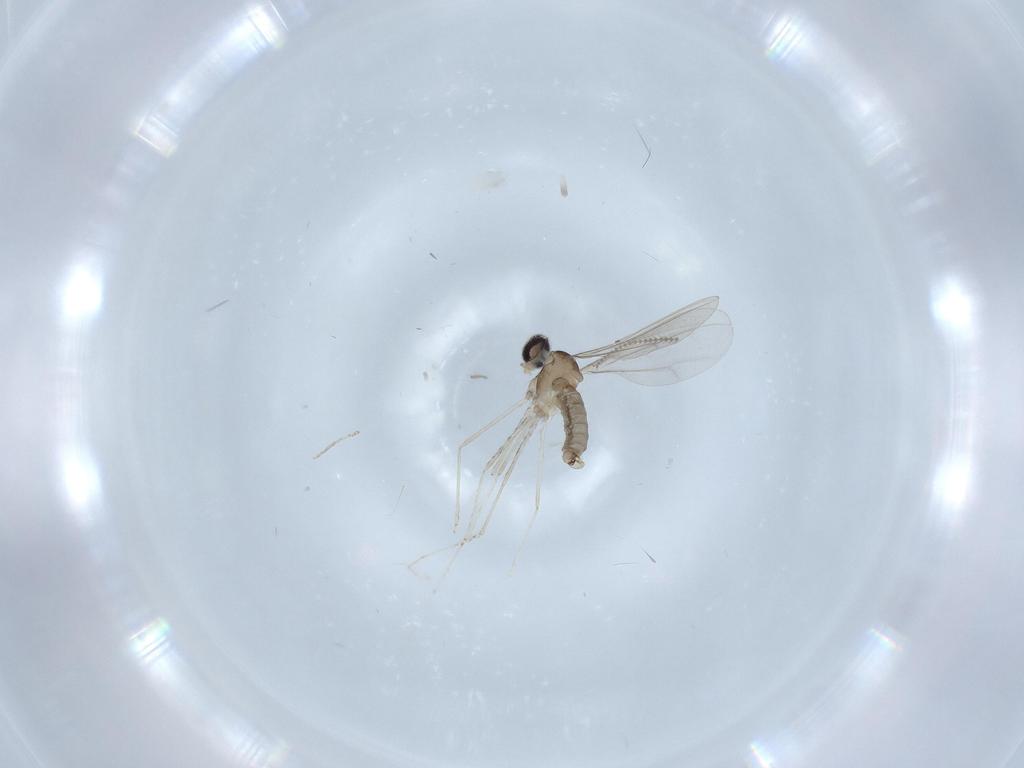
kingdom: Animalia
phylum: Arthropoda
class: Insecta
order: Diptera
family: Cecidomyiidae
